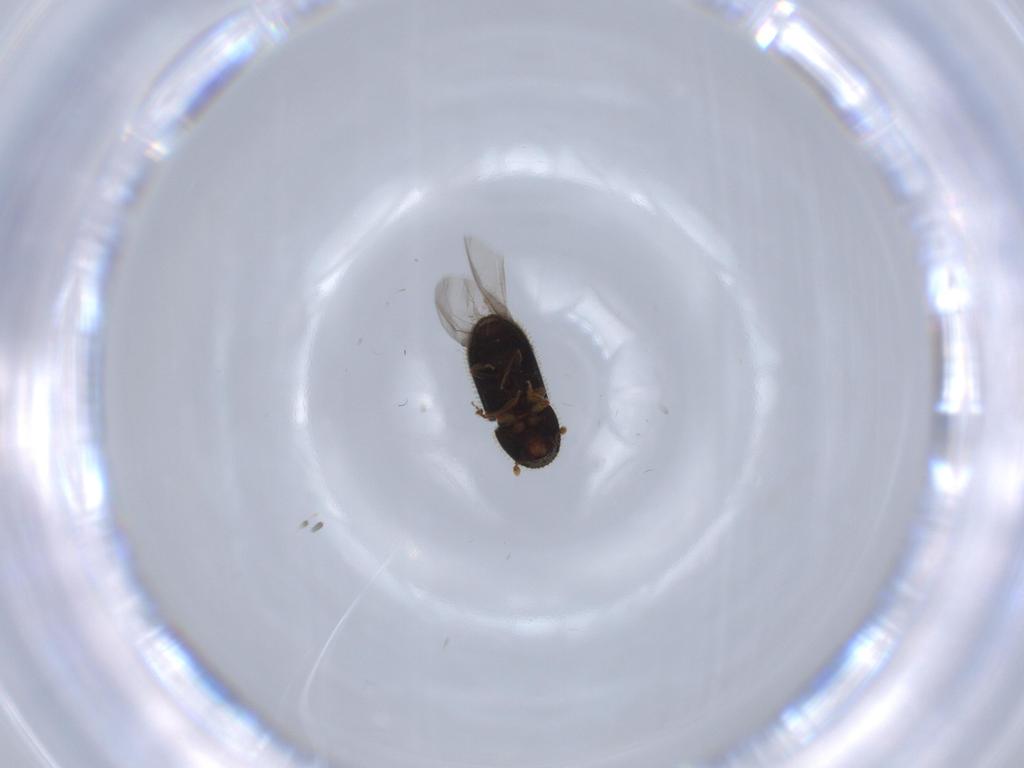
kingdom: Animalia
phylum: Arthropoda
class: Insecta
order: Coleoptera
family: Chrysomelidae
